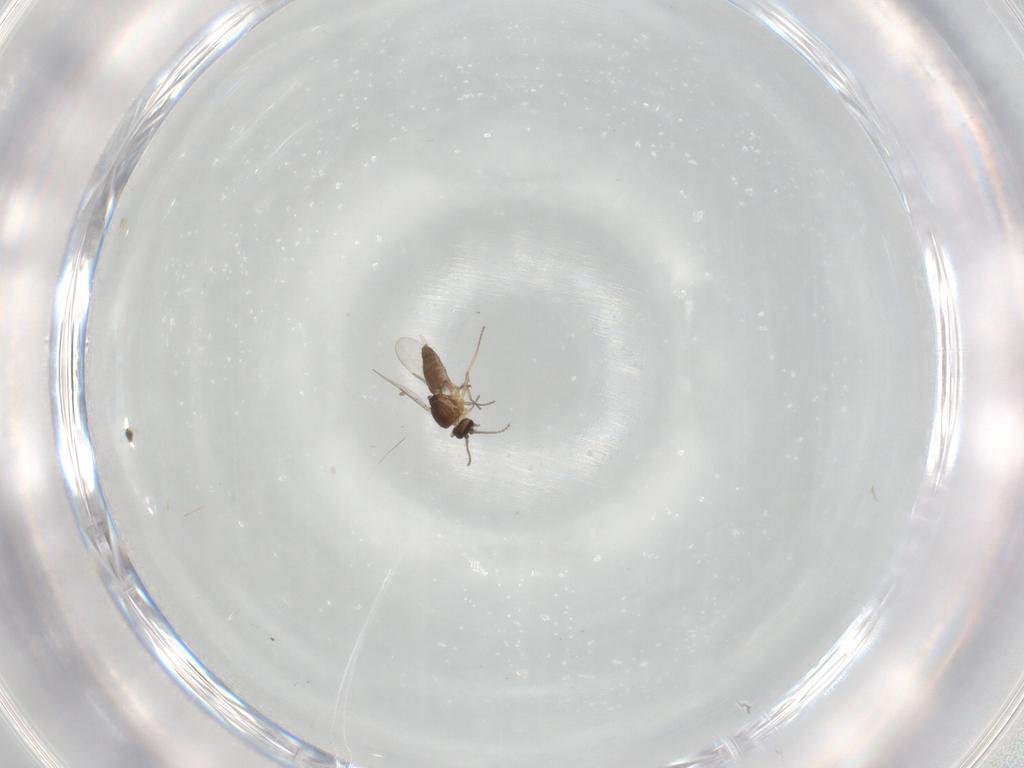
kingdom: Animalia
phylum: Arthropoda
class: Insecta
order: Diptera
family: Ceratopogonidae
